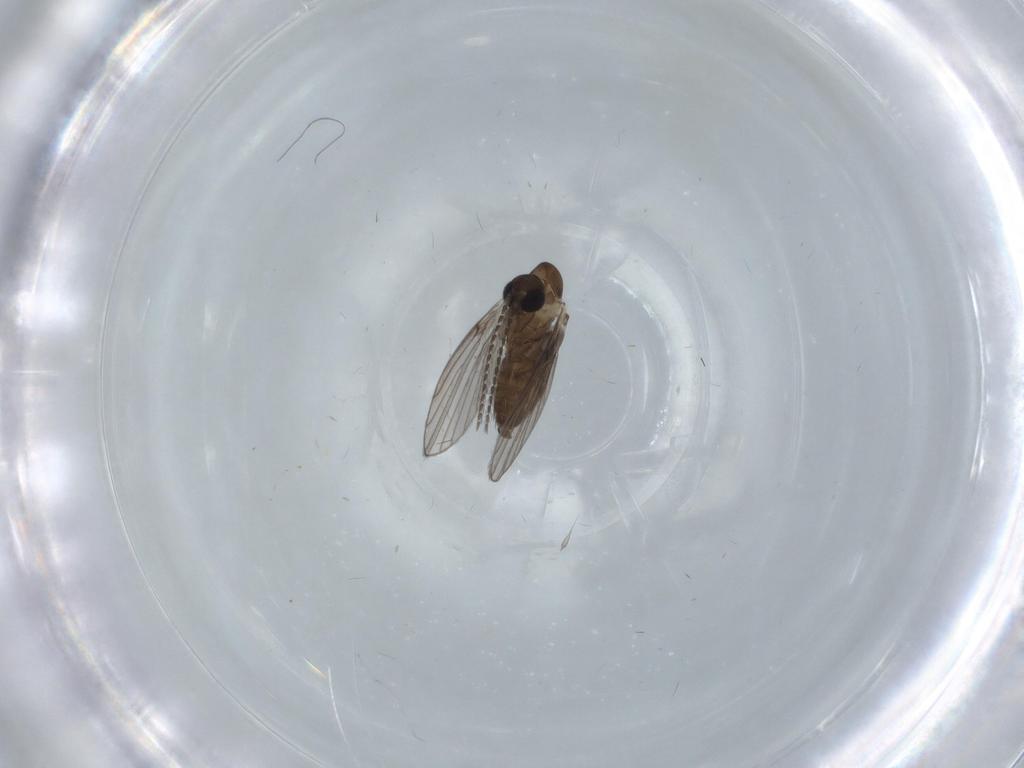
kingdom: Animalia
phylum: Arthropoda
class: Insecta
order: Diptera
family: Psychodidae
